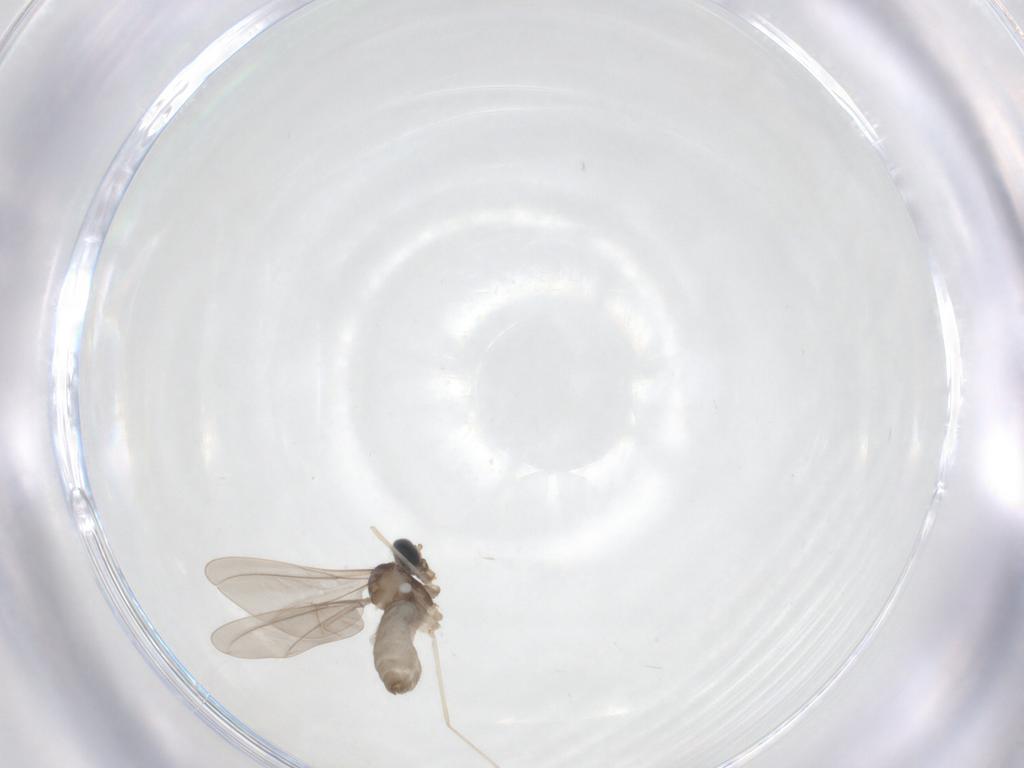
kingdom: Animalia
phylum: Arthropoda
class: Insecta
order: Diptera
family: Cecidomyiidae
